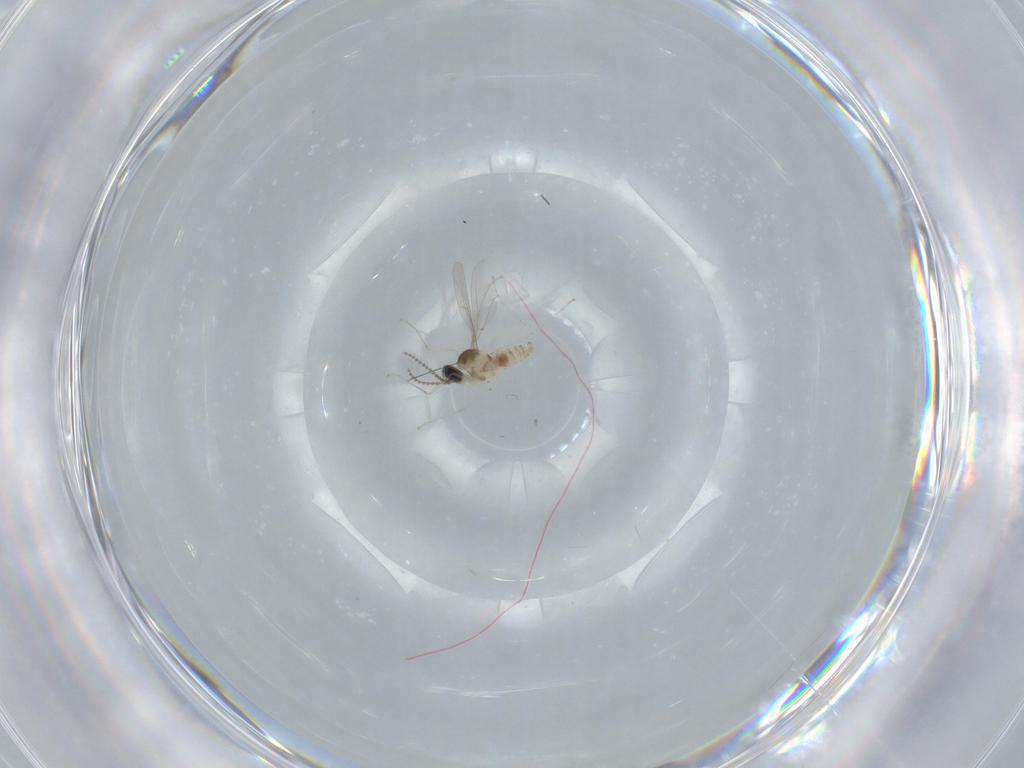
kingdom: Animalia
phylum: Arthropoda
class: Insecta
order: Diptera
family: Cecidomyiidae
